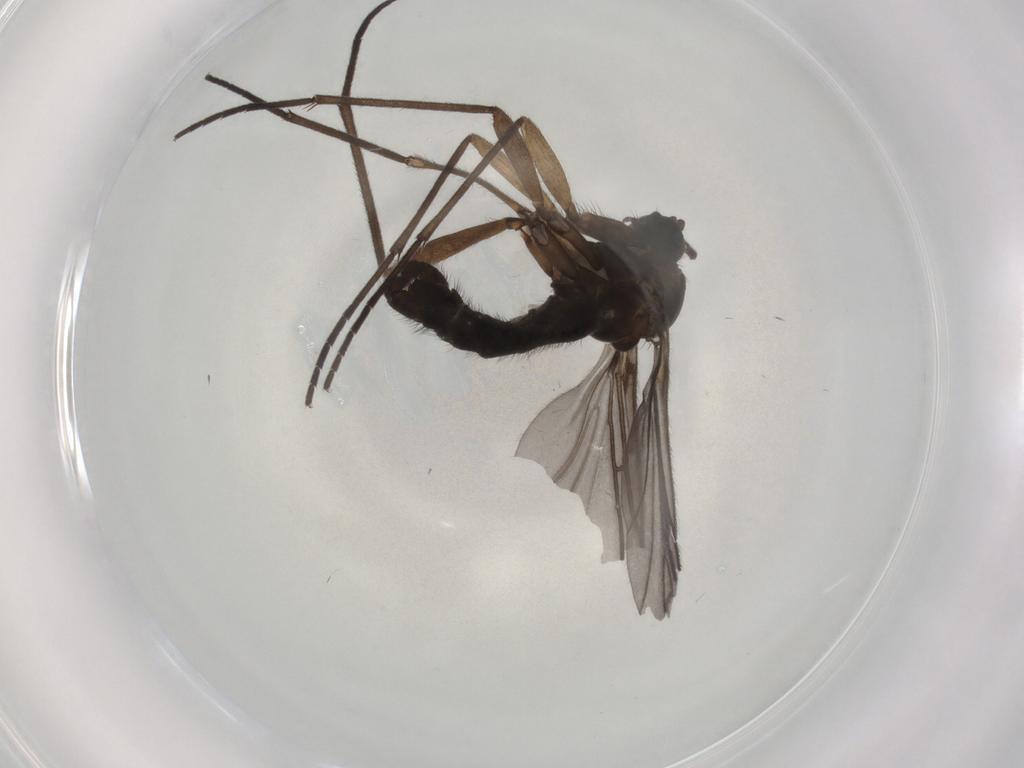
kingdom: Animalia
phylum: Arthropoda
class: Insecta
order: Diptera
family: Sciaridae
